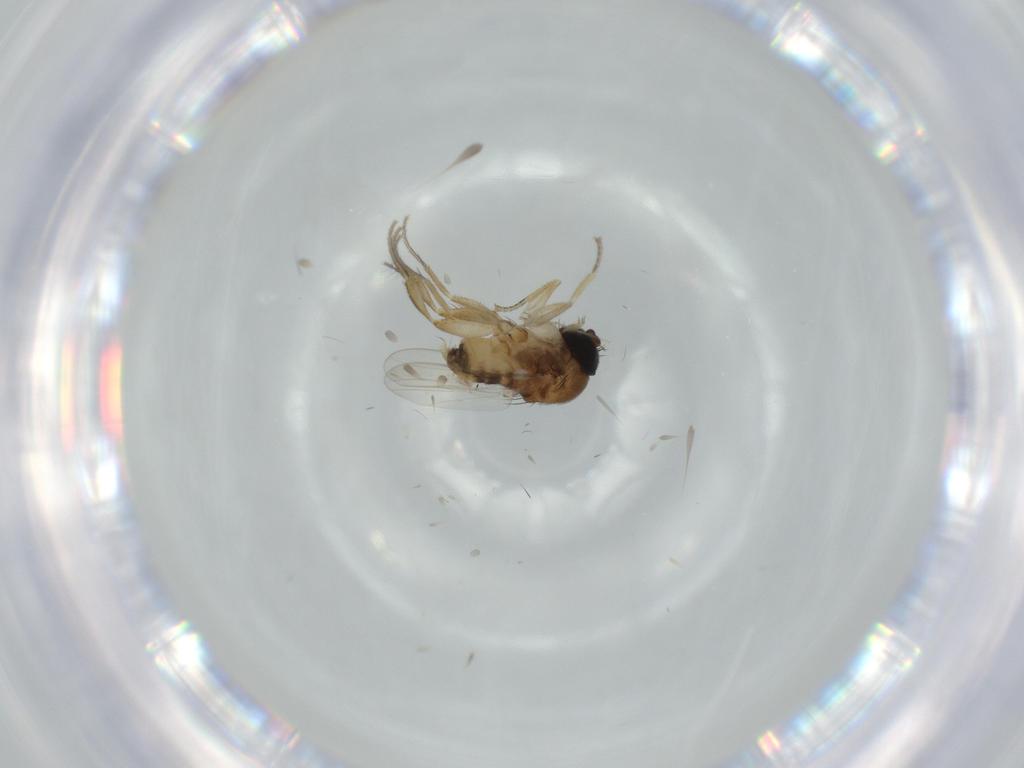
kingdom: Animalia
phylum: Arthropoda
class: Insecta
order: Diptera
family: Phoridae
